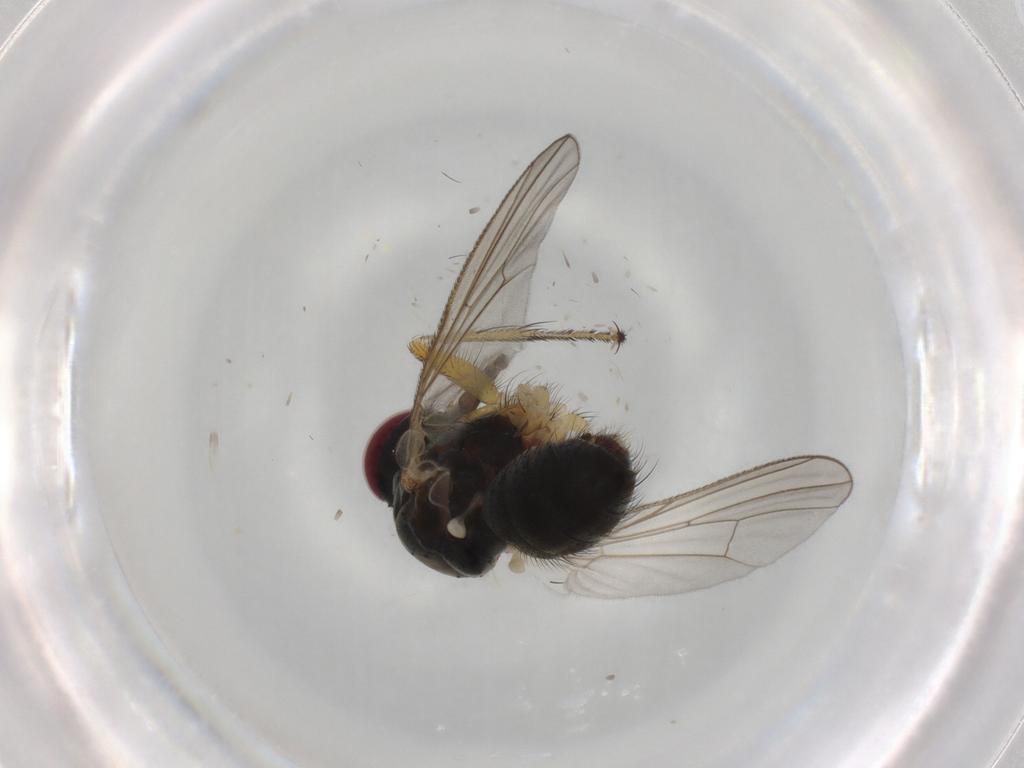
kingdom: Animalia
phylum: Arthropoda
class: Insecta
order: Diptera
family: Muscidae
